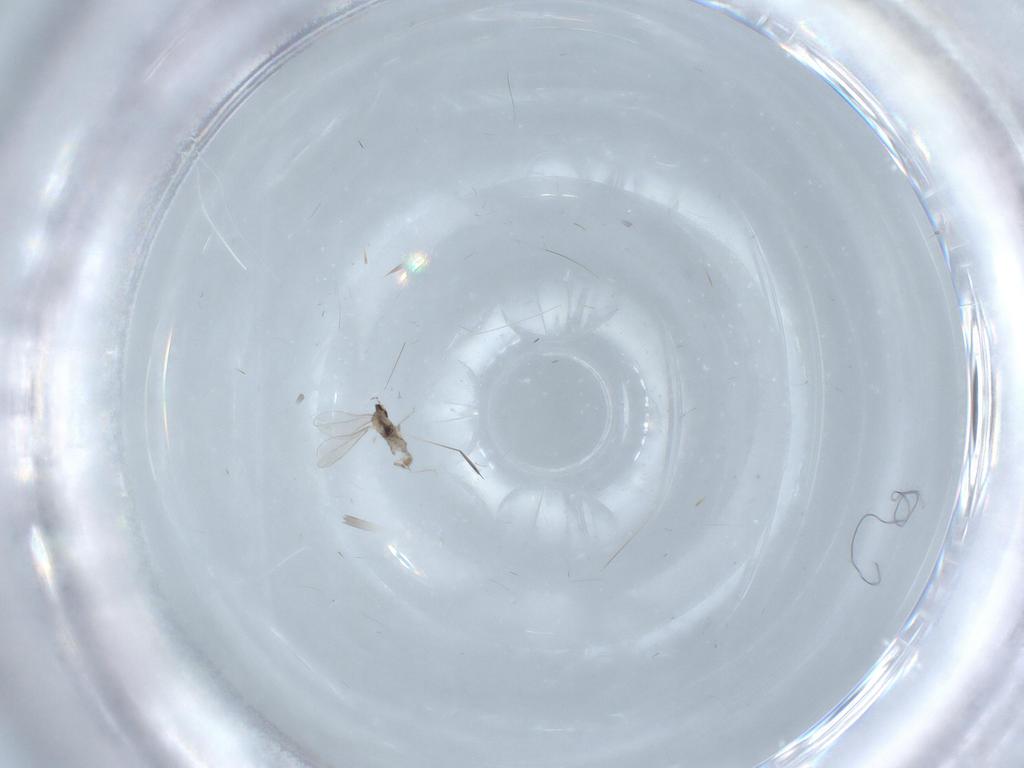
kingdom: Animalia
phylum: Arthropoda
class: Insecta
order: Diptera
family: Cecidomyiidae
